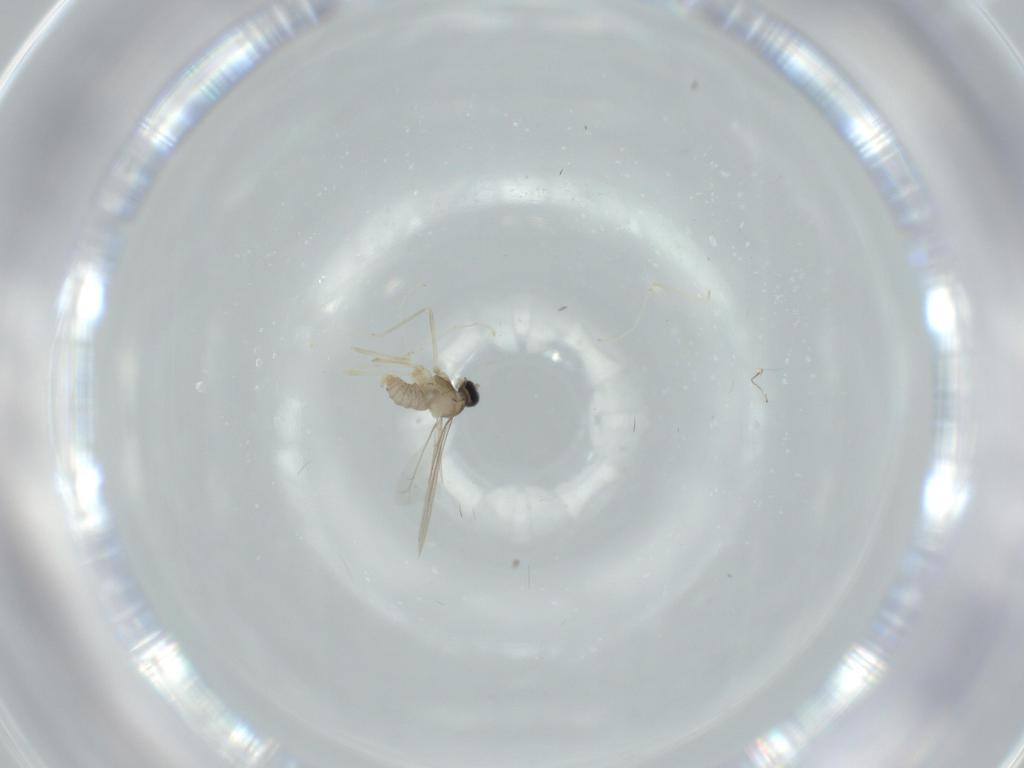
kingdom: Animalia
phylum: Arthropoda
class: Insecta
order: Diptera
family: Cecidomyiidae
